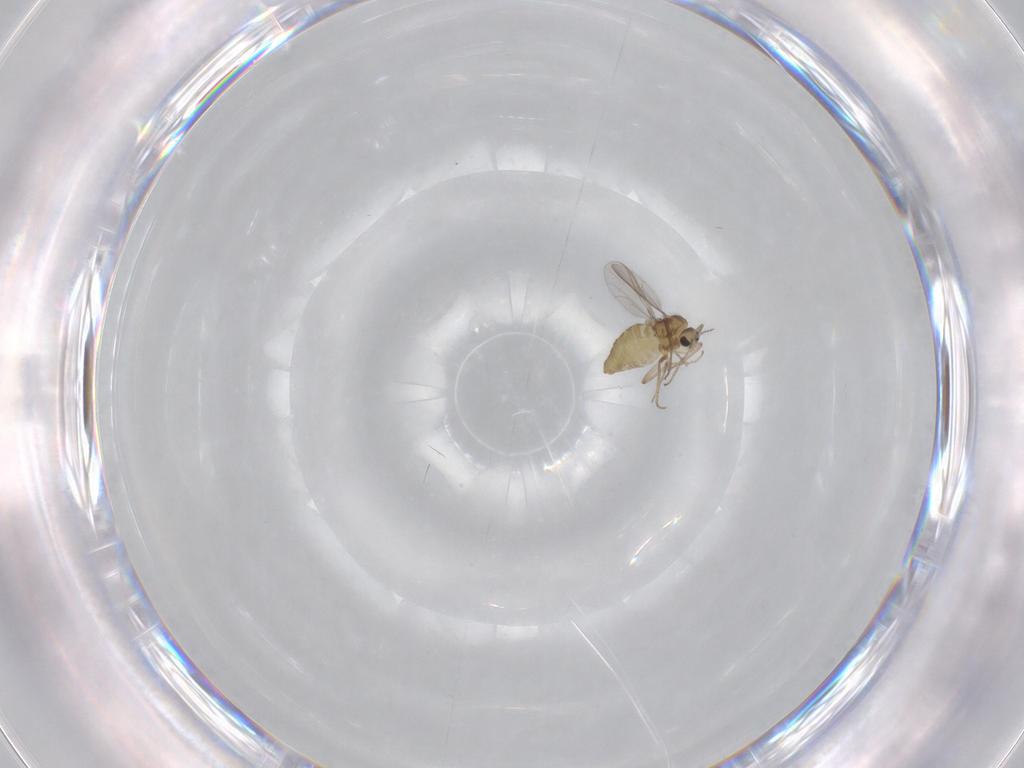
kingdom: Animalia
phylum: Arthropoda
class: Insecta
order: Diptera
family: Chironomidae
